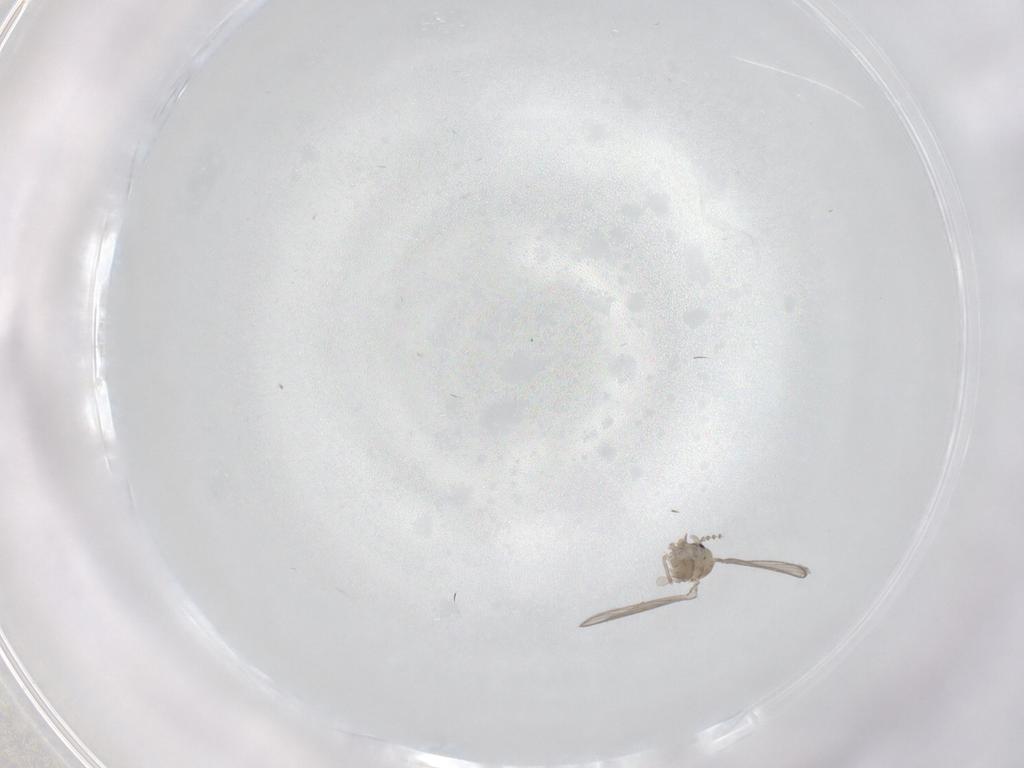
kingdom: Animalia
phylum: Arthropoda
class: Insecta
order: Diptera
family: Psychodidae
